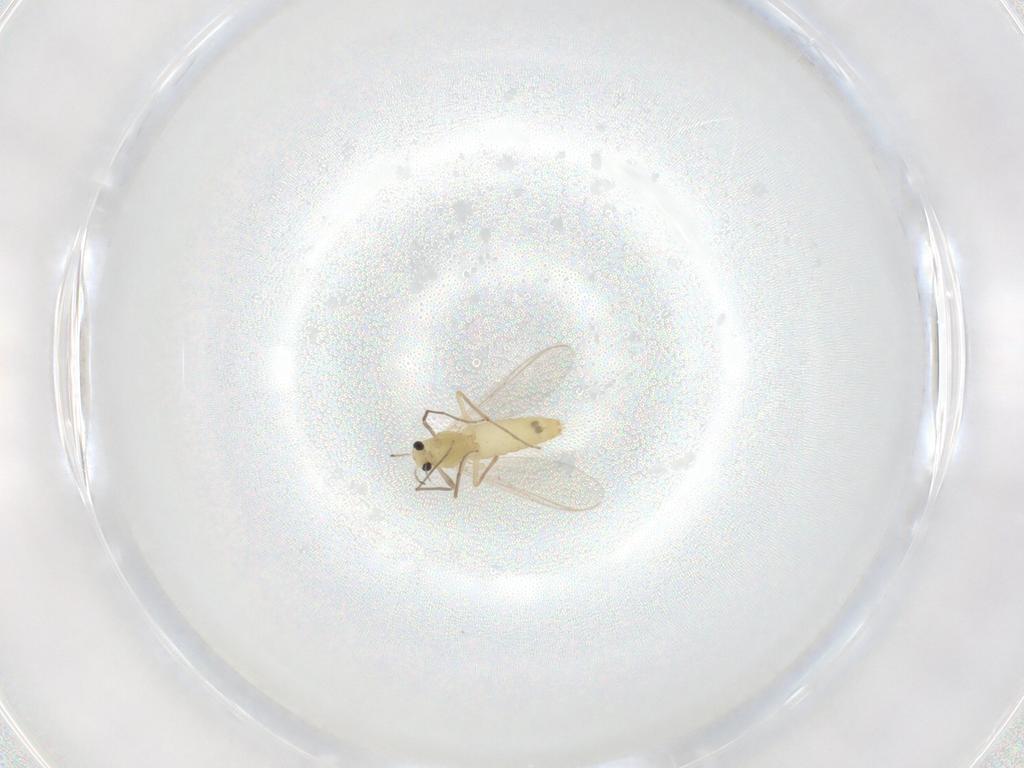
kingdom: Animalia
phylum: Arthropoda
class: Insecta
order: Diptera
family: Chironomidae
